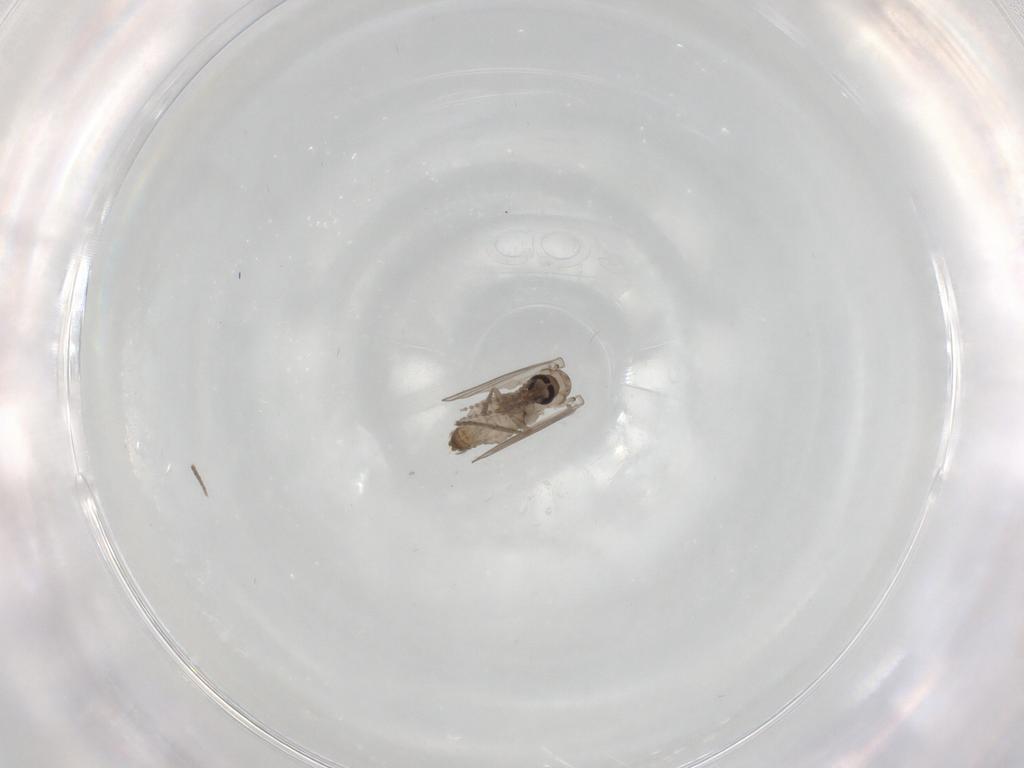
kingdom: Animalia
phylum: Arthropoda
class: Insecta
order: Diptera
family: Psychodidae
